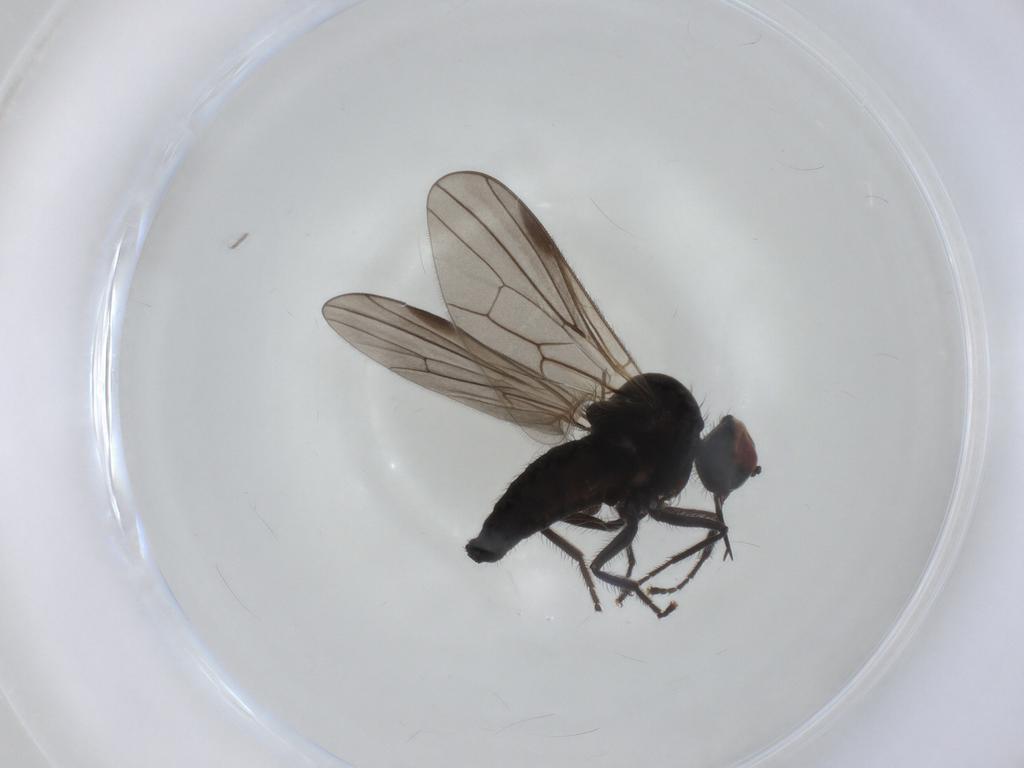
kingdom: Animalia
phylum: Arthropoda
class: Insecta
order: Diptera
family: Hybotidae
